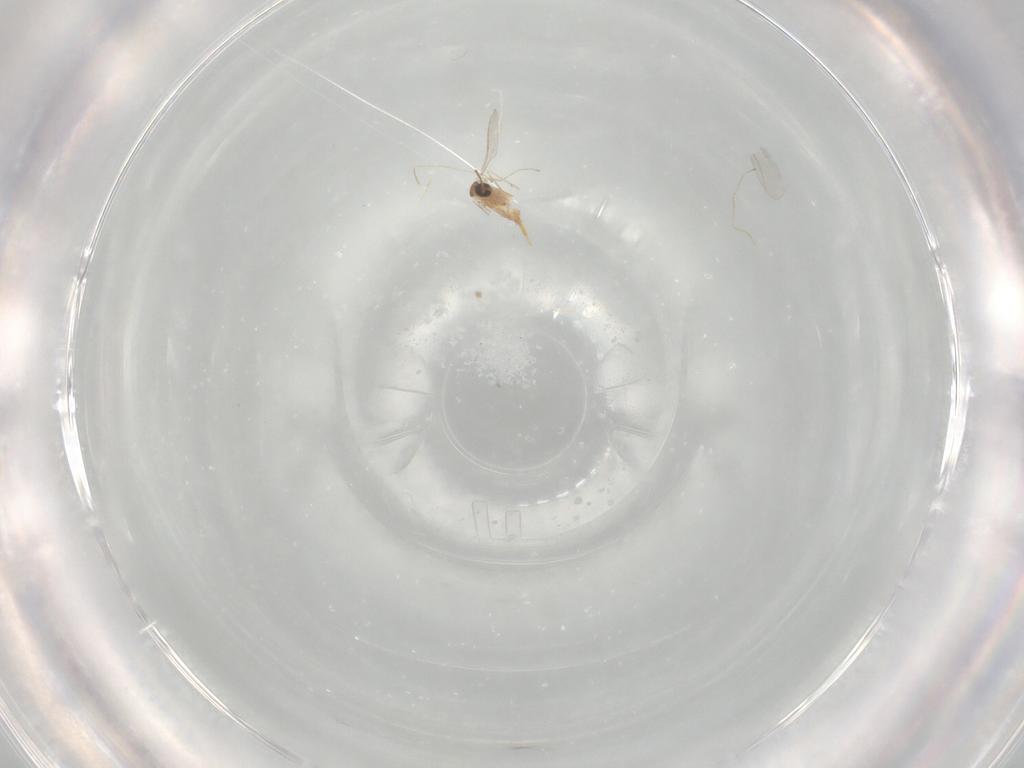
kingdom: Animalia
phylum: Arthropoda
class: Insecta
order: Diptera
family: Cecidomyiidae
